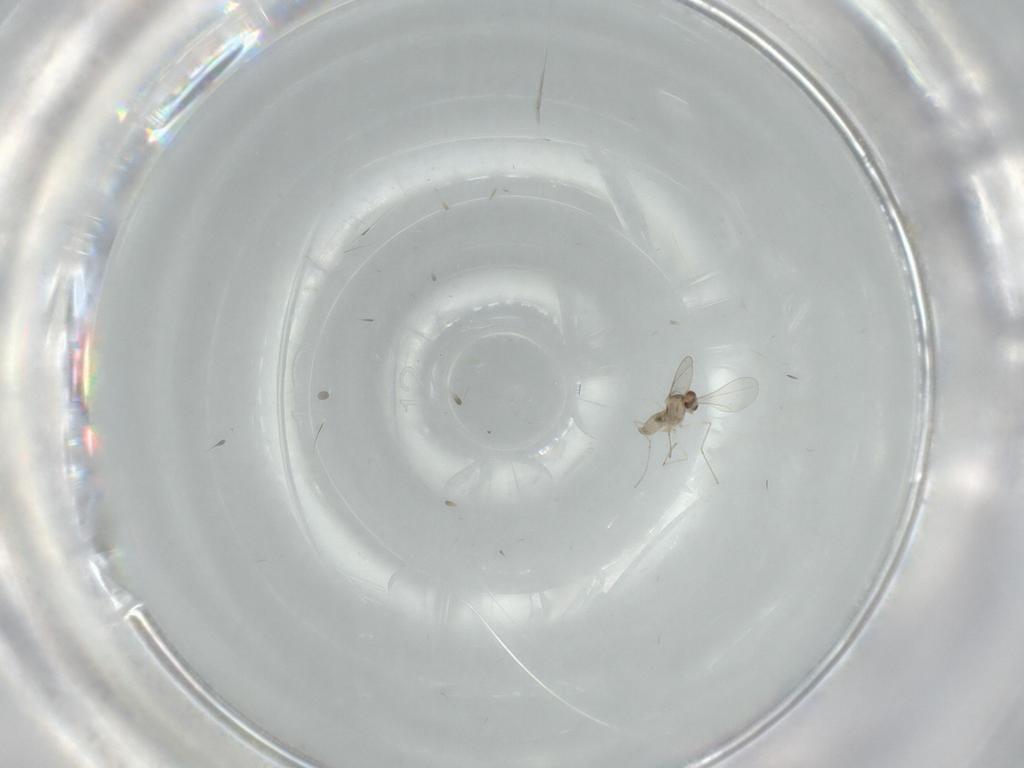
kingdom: Animalia
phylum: Arthropoda
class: Insecta
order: Diptera
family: Cecidomyiidae
